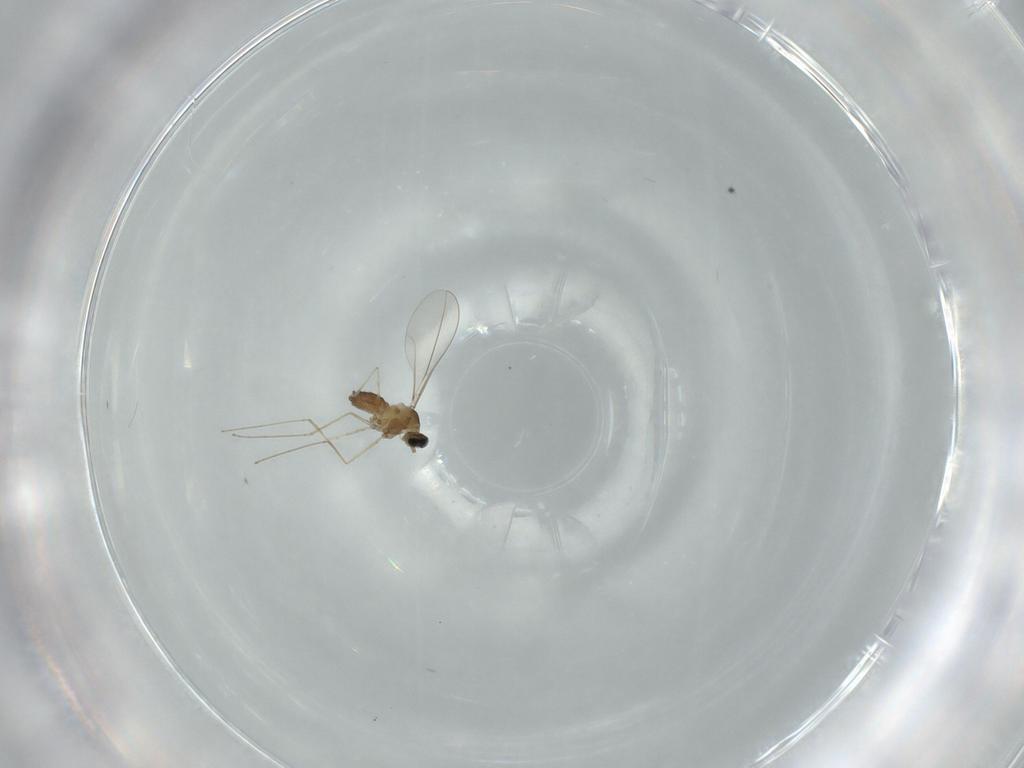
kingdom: Animalia
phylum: Arthropoda
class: Insecta
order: Diptera
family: Cecidomyiidae
